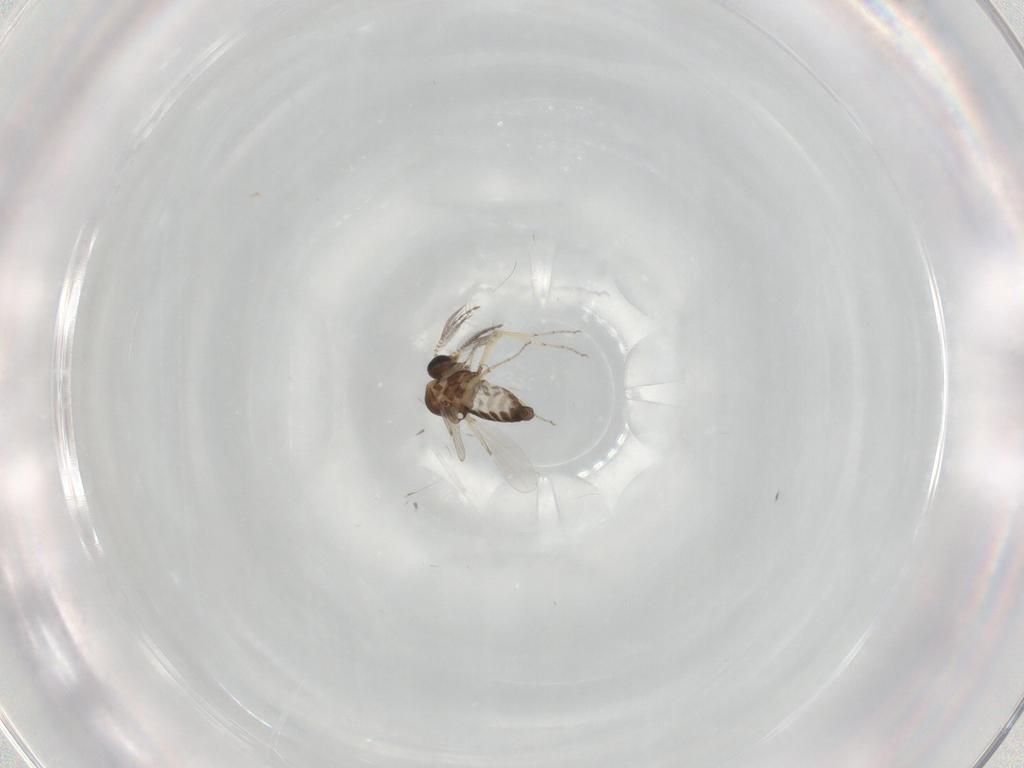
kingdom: Animalia
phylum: Arthropoda
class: Insecta
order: Diptera
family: Ceratopogonidae
